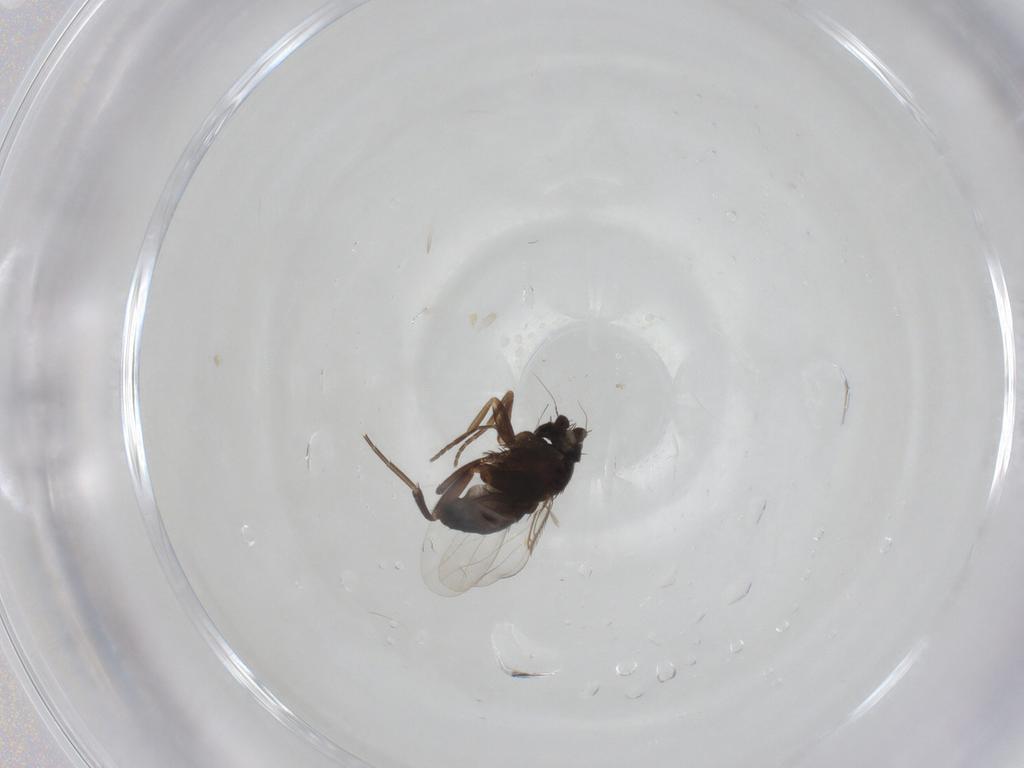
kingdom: Animalia
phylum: Arthropoda
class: Insecta
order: Diptera
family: Phoridae
